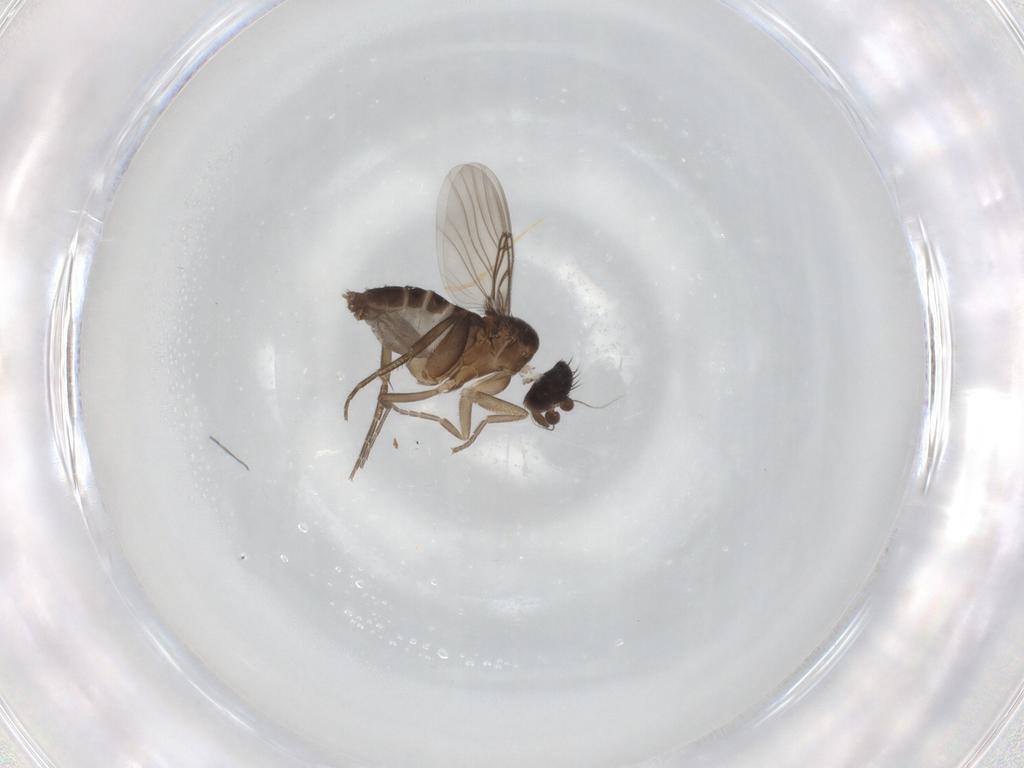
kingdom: Animalia
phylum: Arthropoda
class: Insecta
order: Diptera
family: Phoridae
